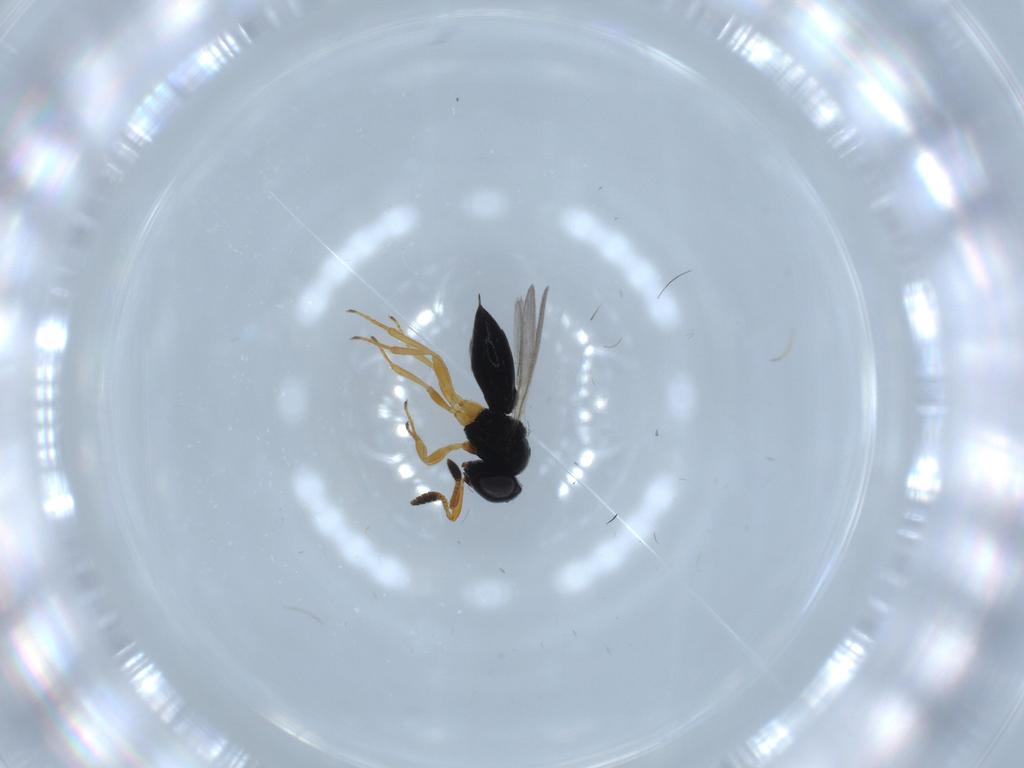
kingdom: Animalia
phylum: Arthropoda
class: Insecta
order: Hymenoptera
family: Scelionidae
